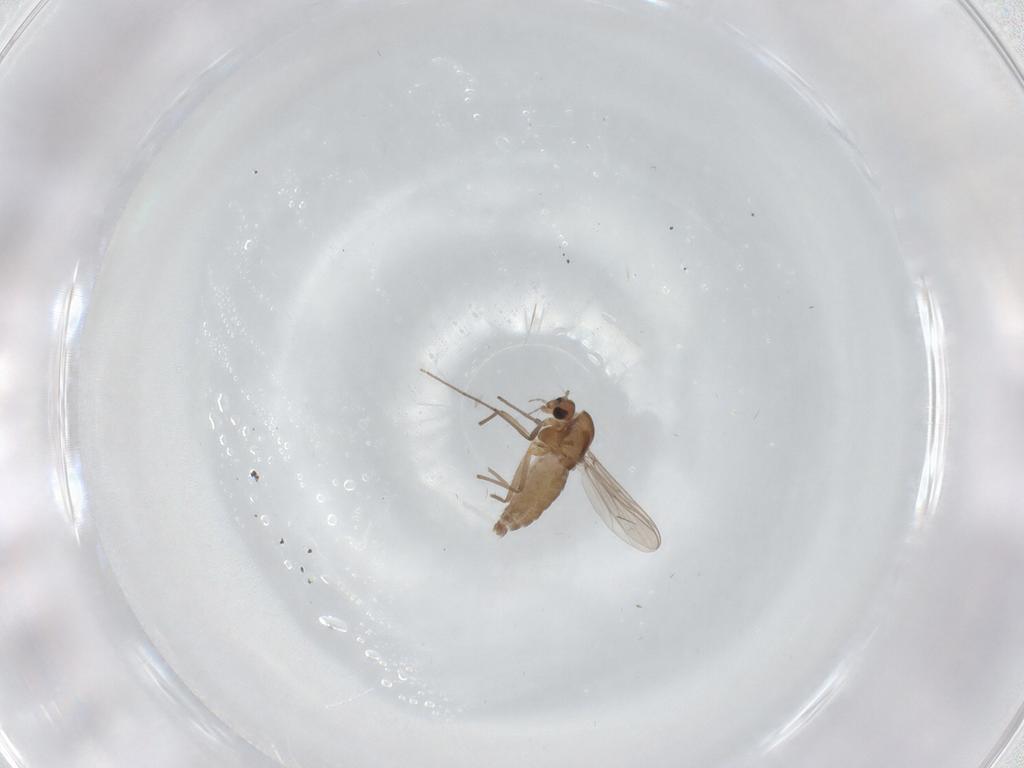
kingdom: Animalia
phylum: Arthropoda
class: Insecta
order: Diptera
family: Chironomidae
